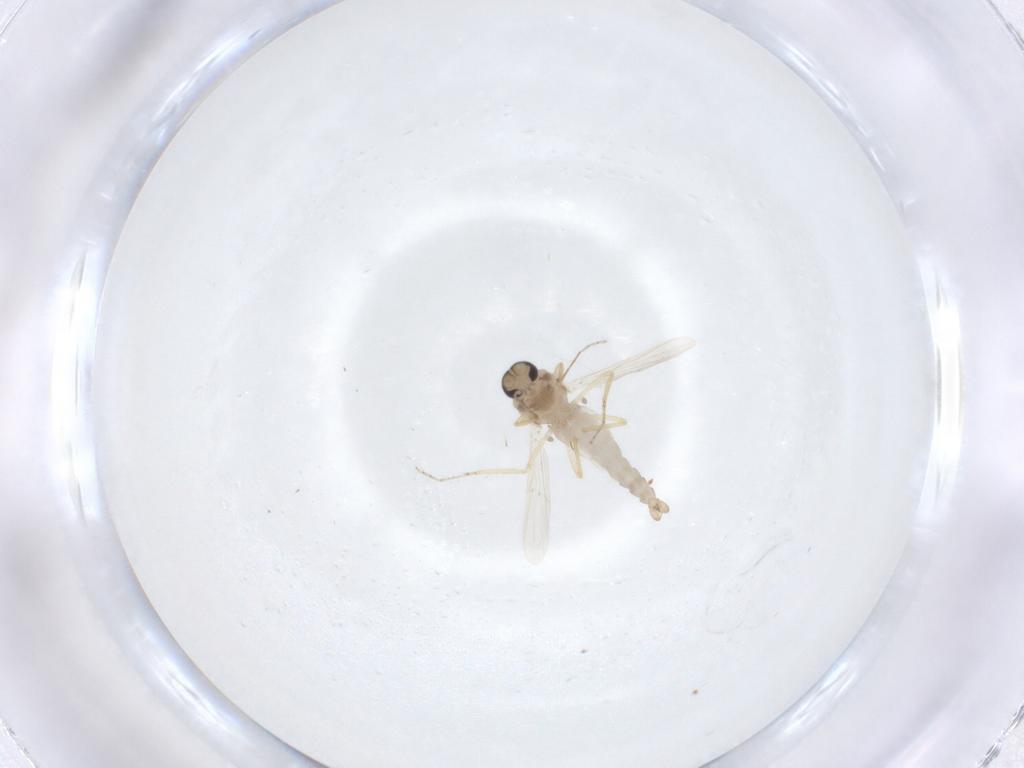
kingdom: Animalia
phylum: Arthropoda
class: Insecta
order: Diptera
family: Ceratopogonidae
